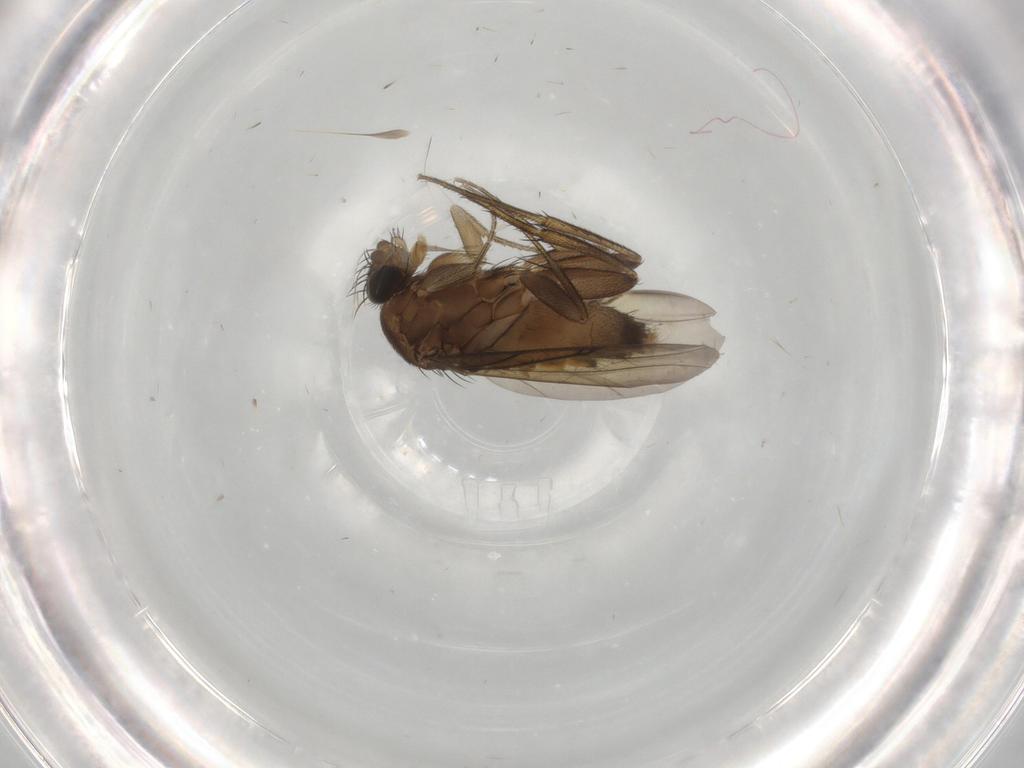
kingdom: Animalia
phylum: Arthropoda
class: Insecta
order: Diptera
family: Phoridae
